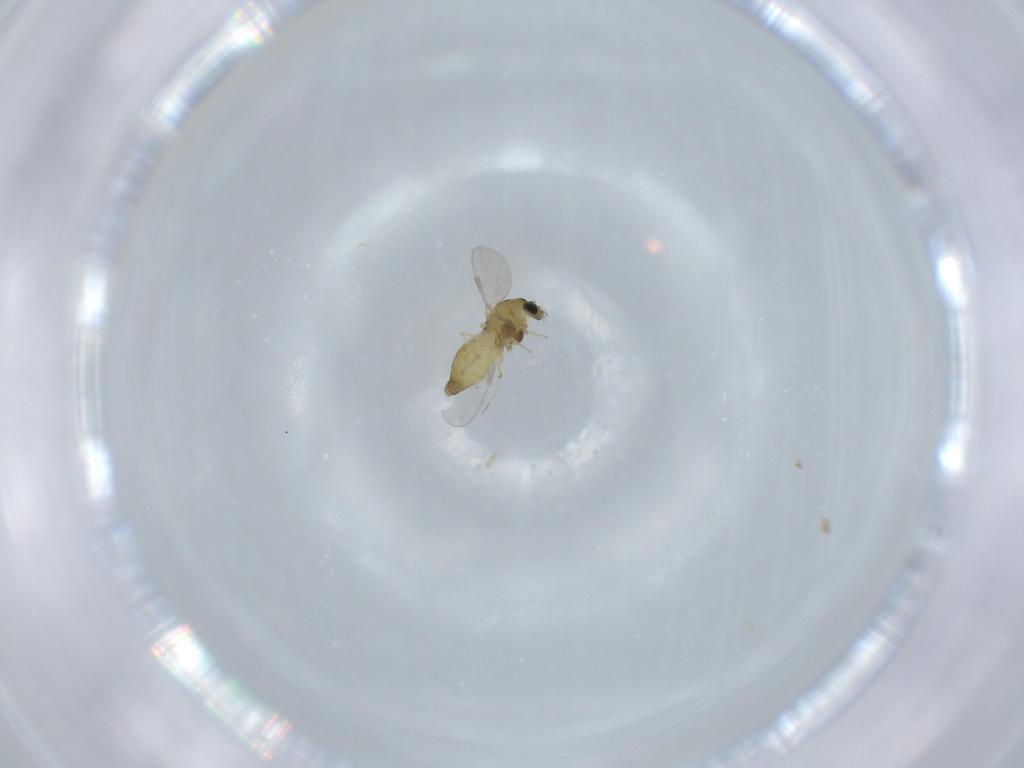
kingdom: Animalia
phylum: Arthropoda
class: Insecta
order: Diptera
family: Chironomidae
